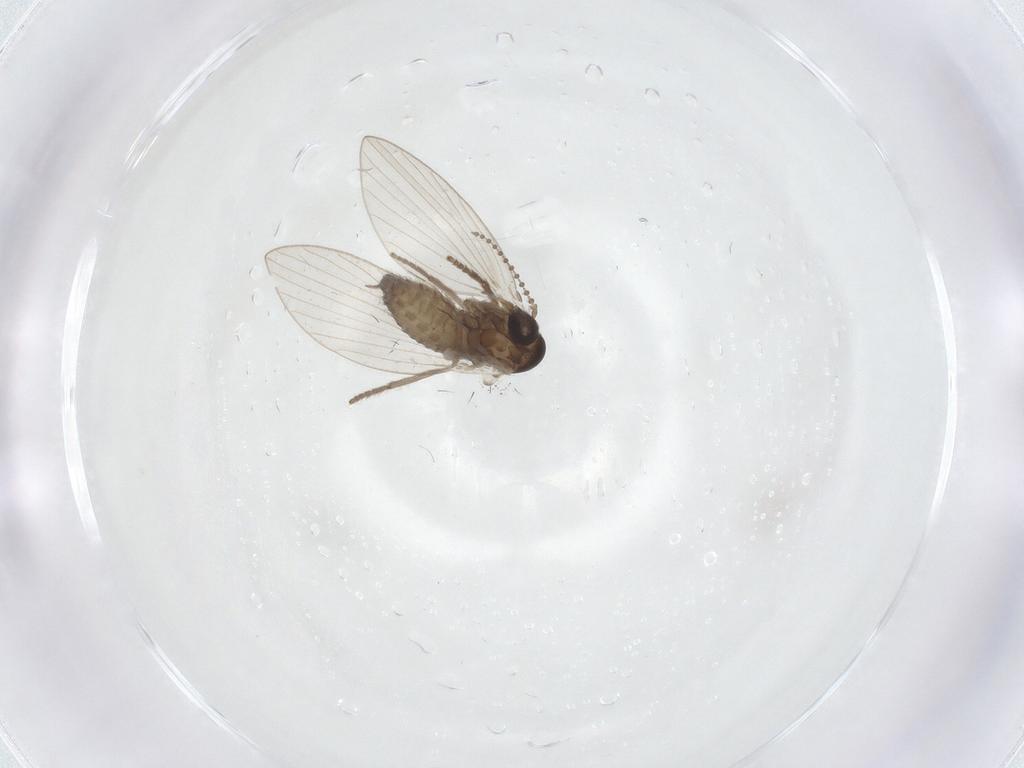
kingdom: Animalia
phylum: Arthropoda
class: Insecta
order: Diptera
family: Psychodidae
